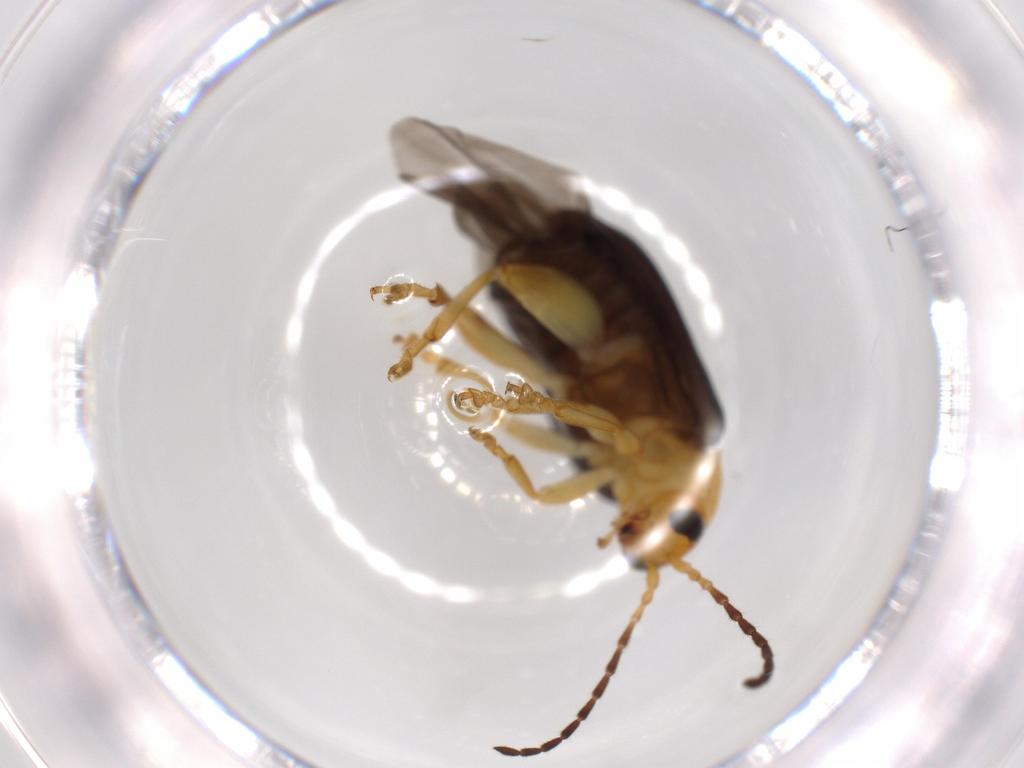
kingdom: Animalia
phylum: Arthropoda
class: Insecta
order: Coleoptera
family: Chrysomelidae
